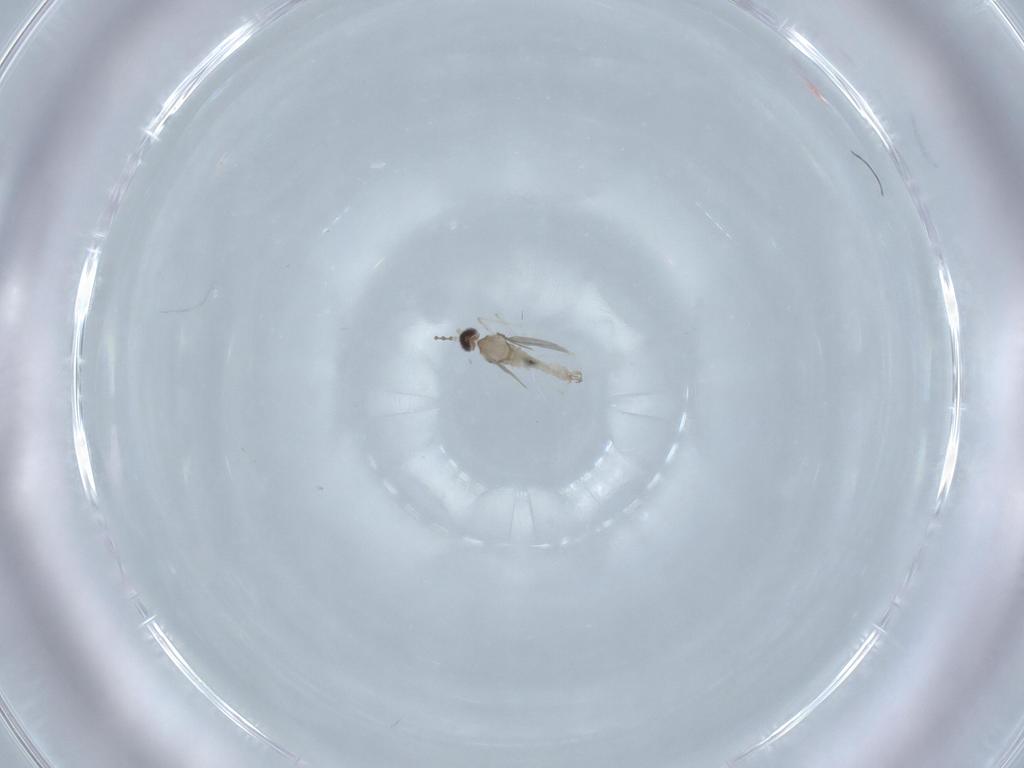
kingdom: Animalia
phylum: Arthropoda
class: Insecta
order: Diptera
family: Cecidomyiidae
